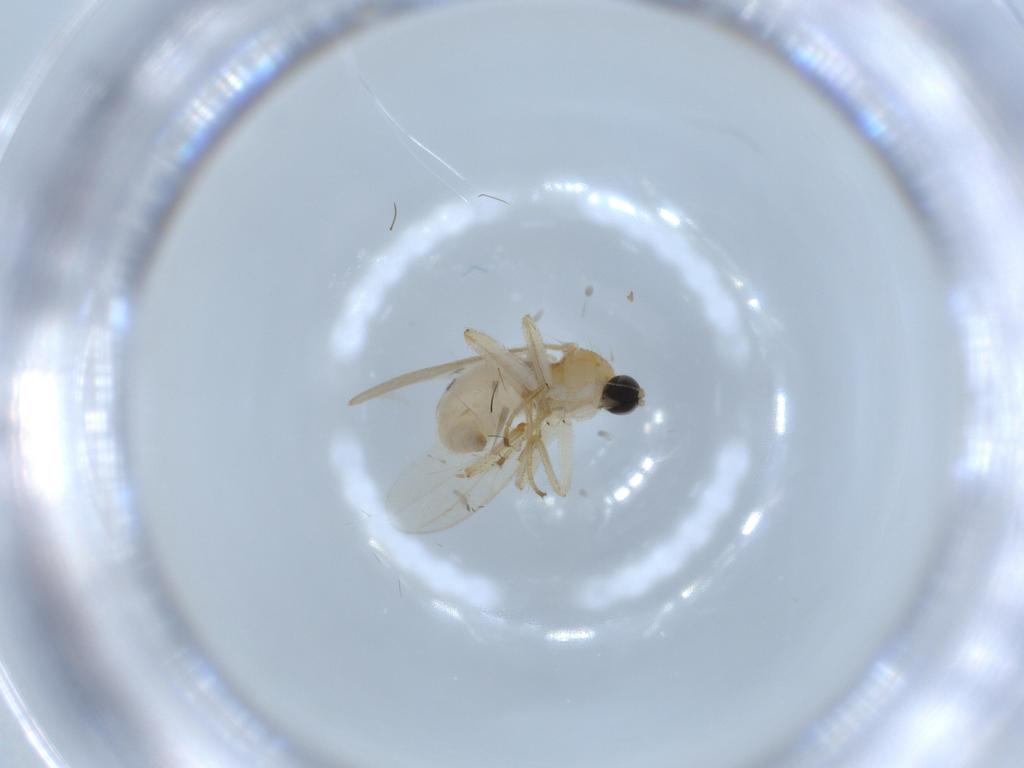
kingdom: Animalia
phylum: Arthropoda
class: Insecta
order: Diptera
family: Hybotidae
